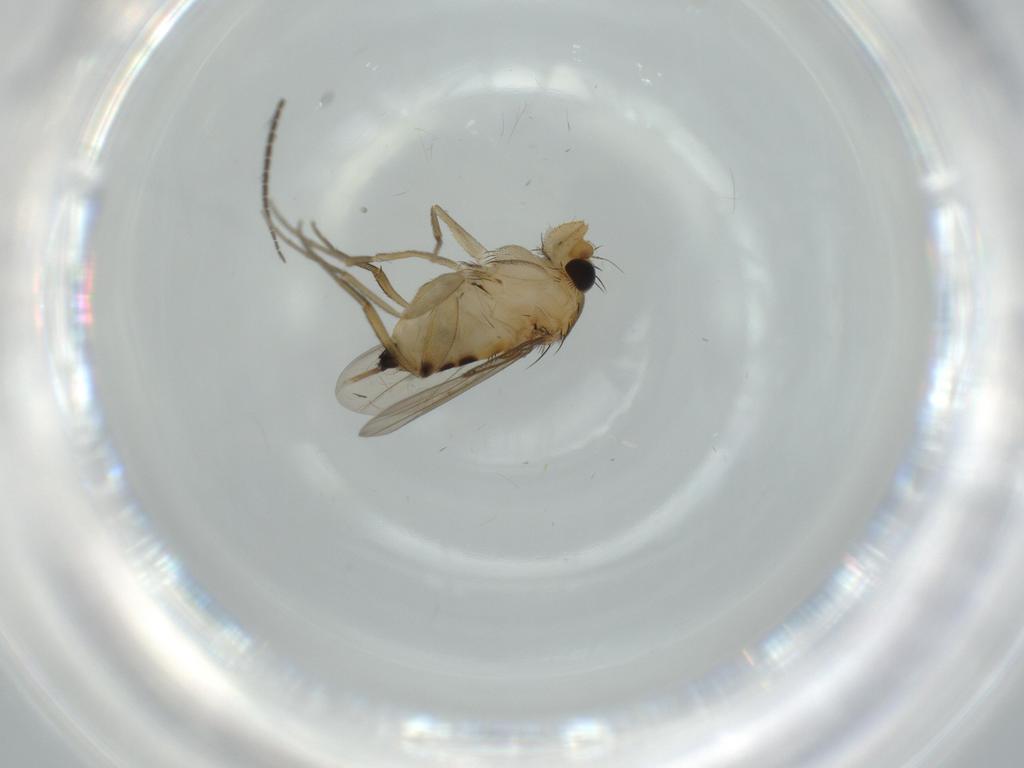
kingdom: Animalia
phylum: Arthropoda
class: Insecta
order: Diptera
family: Phoridae
